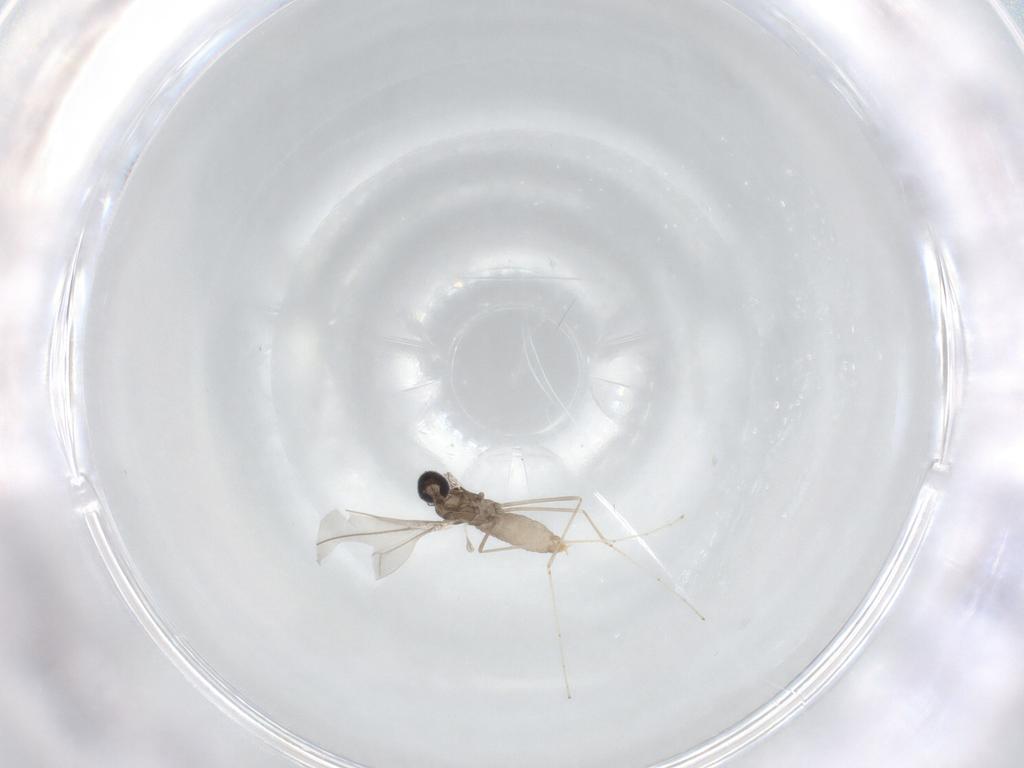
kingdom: Animalia
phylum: Arthropoda
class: Insecta
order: Diptera
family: Cecidomyiidae
